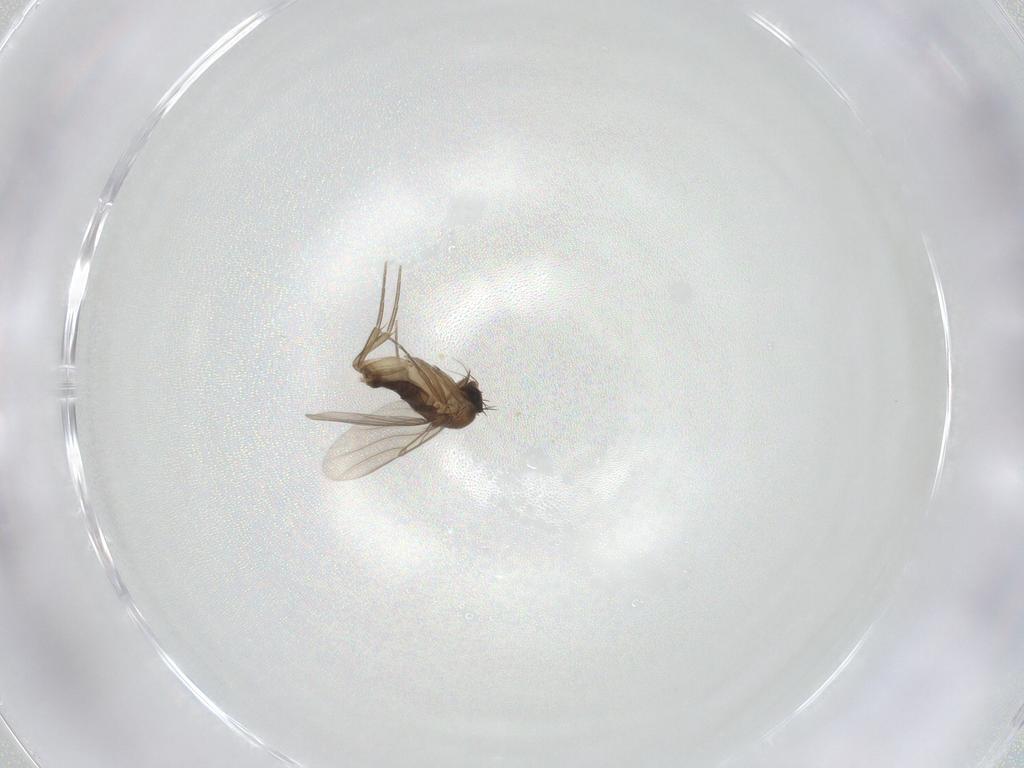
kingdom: Animalia
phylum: Arthropoda
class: Insecta
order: Diptera
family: Phoridae
